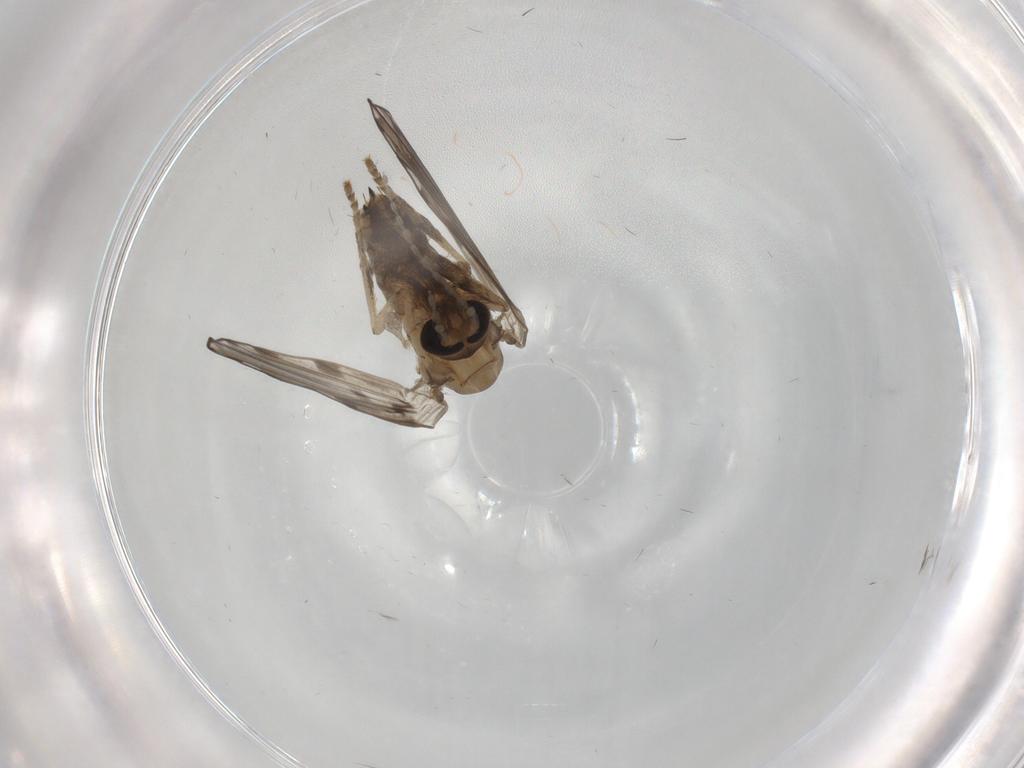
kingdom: Animalia
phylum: Arthropoda
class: Insecta
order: Diptera
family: Psychodidae
